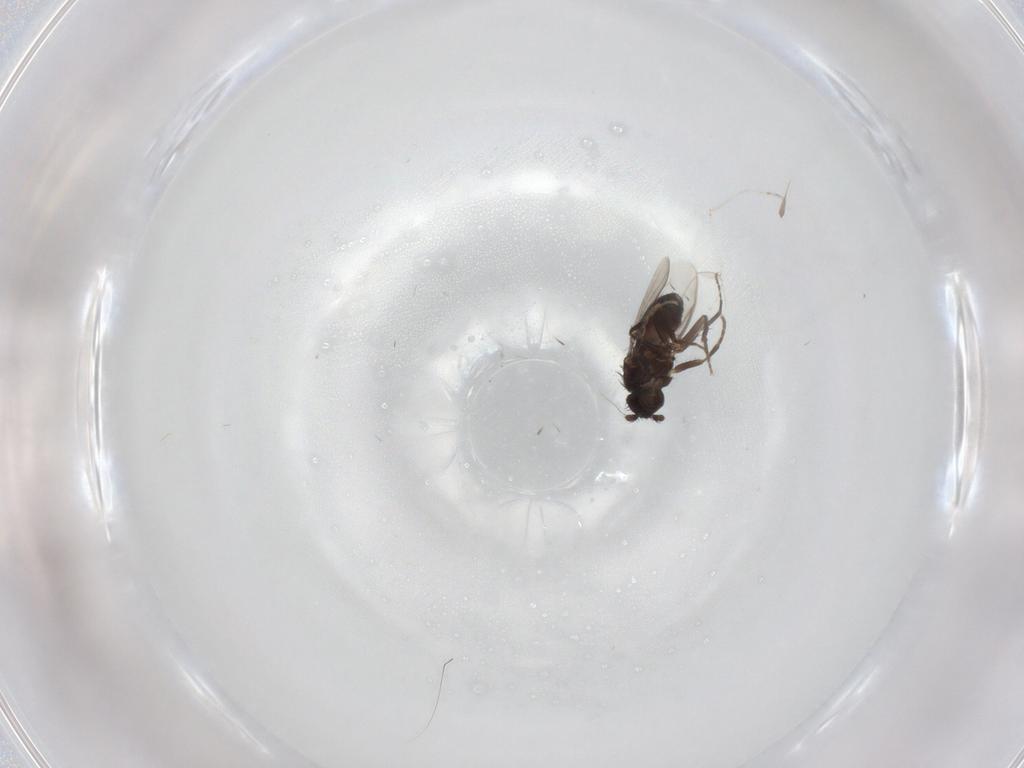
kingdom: Animalia
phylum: Arthropoda
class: Insecta
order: Diptera
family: Sphaeroceridae
